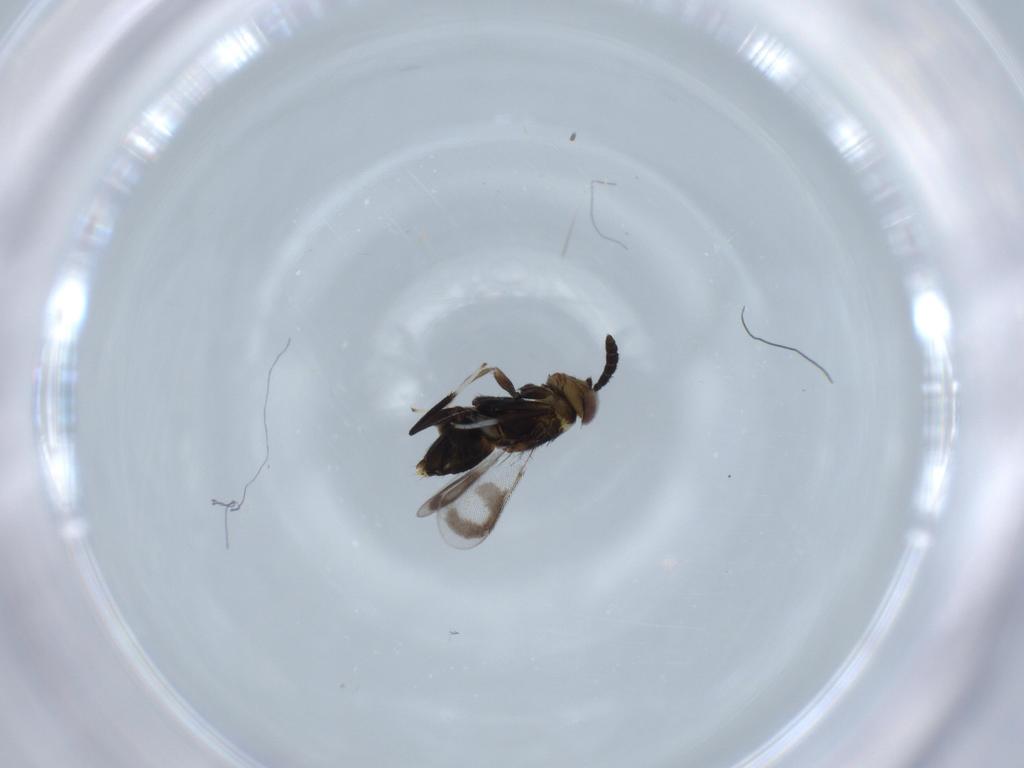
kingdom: Animalia
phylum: Arthropoda
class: Insecta
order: Hymenoptera
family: Aphelinidae
